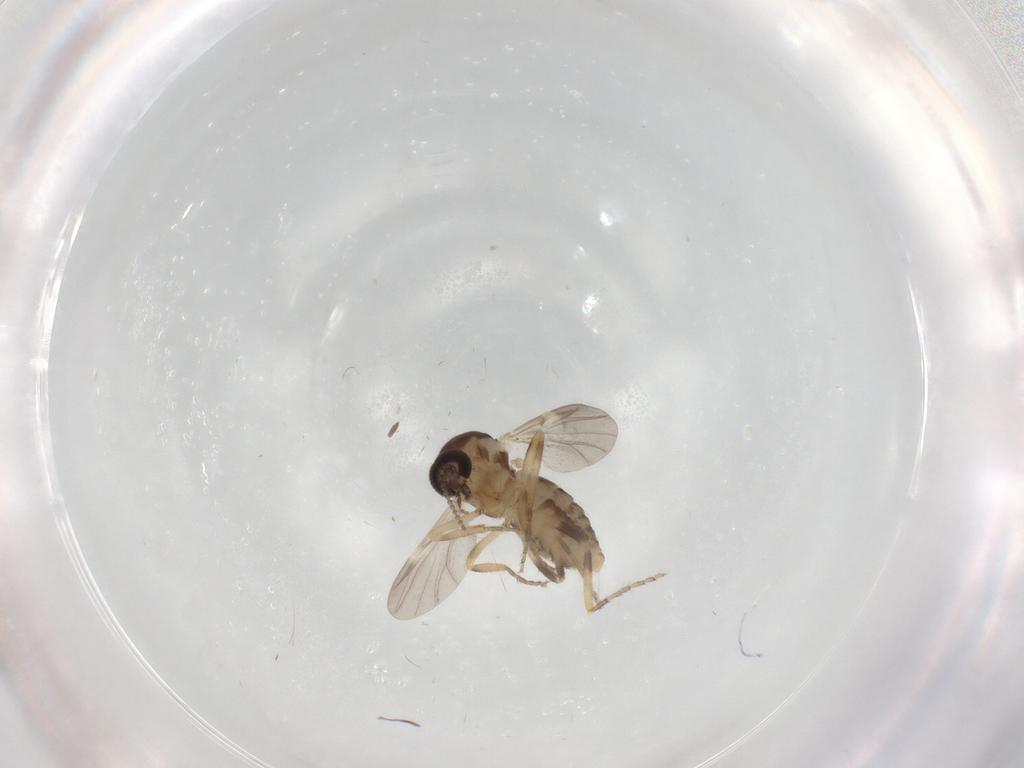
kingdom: Animalia
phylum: Arthropoda
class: Insecta
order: Diptera
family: Ceratopogonidae
